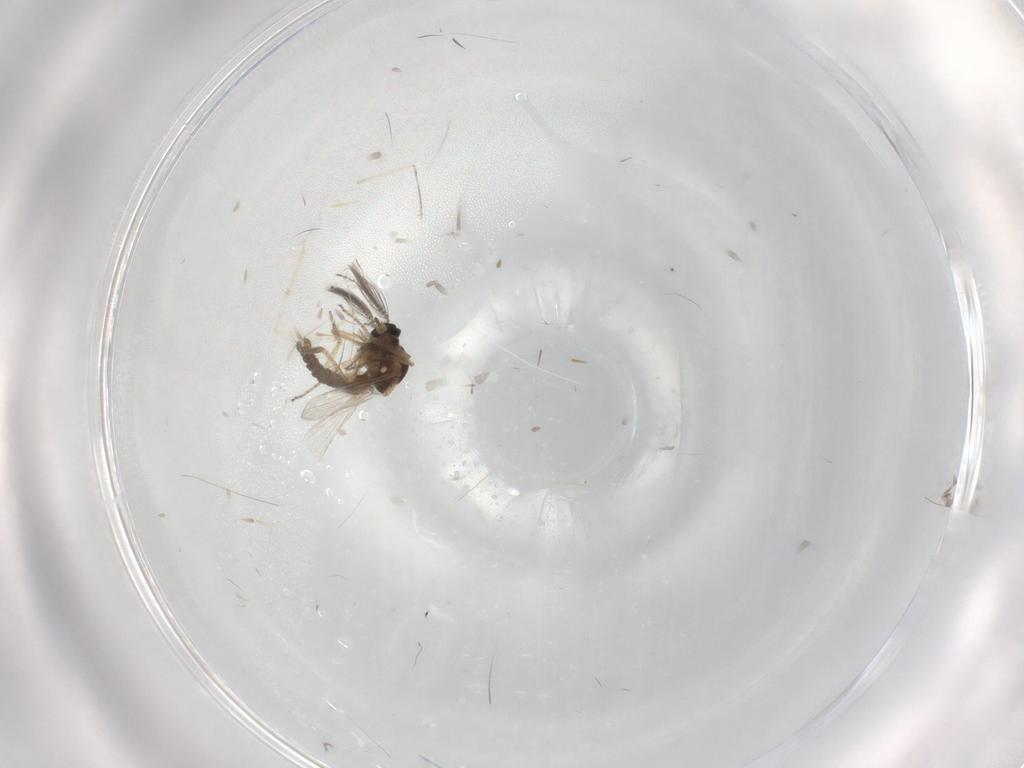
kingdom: Animalia
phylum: Arthropoda
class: Insecta
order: Diptera
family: Ceratopogonidae
